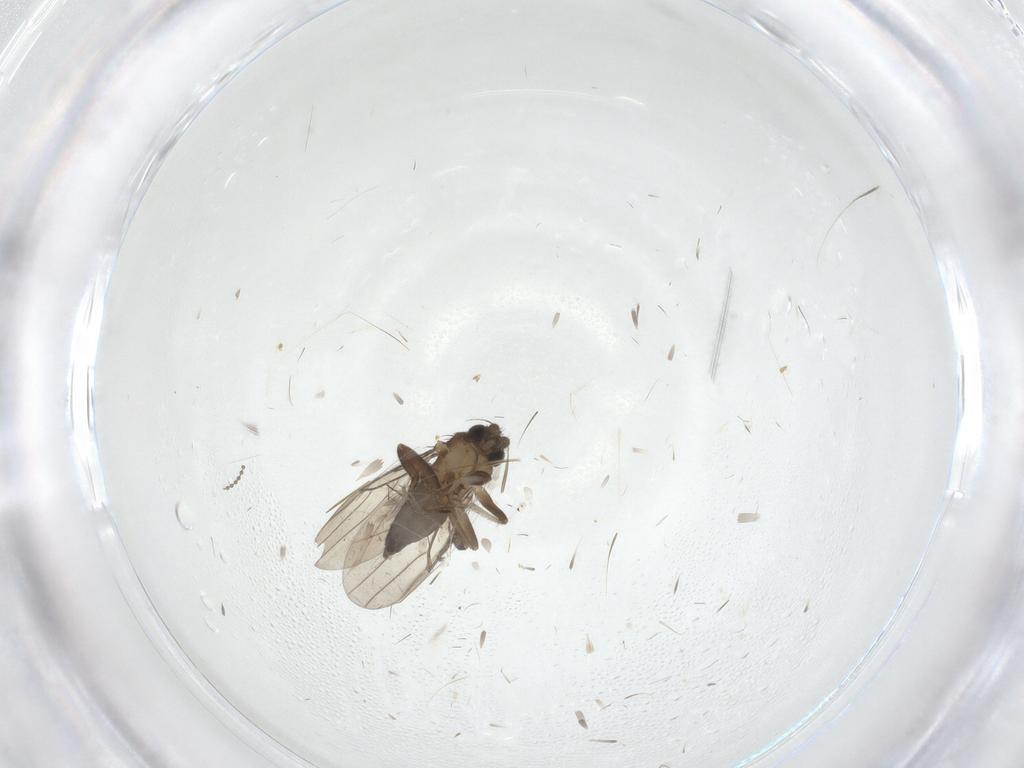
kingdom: Animalia
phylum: Arthropoda
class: Insecta
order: Diptera
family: Cecidomyiidae
